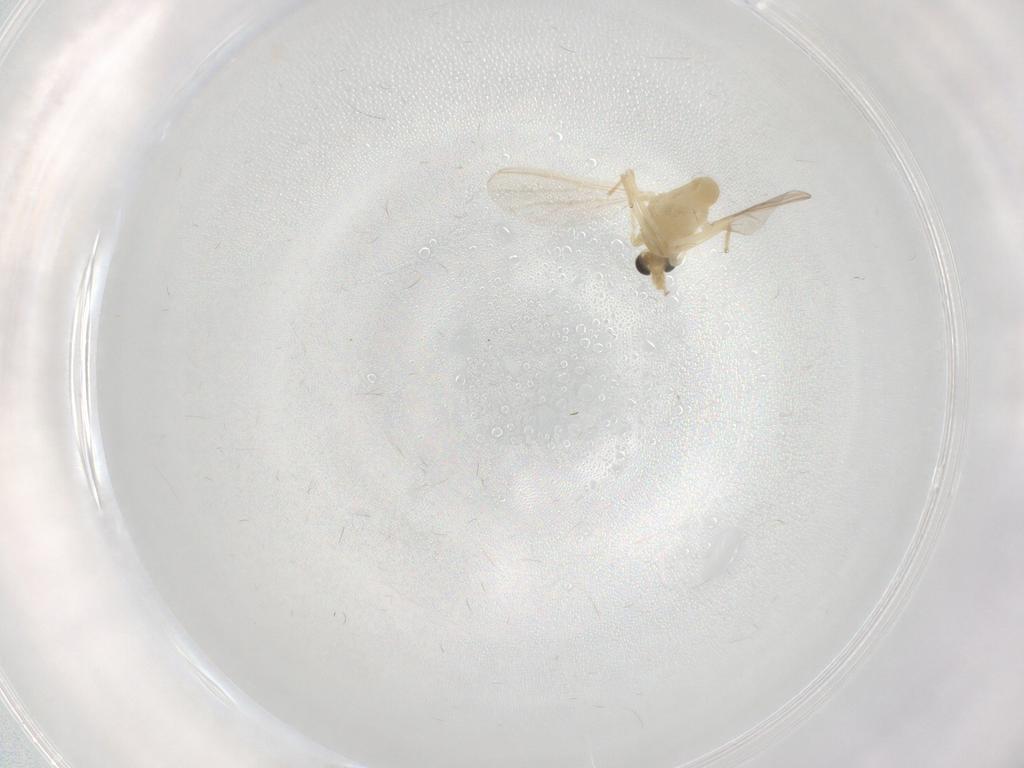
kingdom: Animalia
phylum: Arthropoda
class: Insecta
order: Diptera
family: Chironomidae
